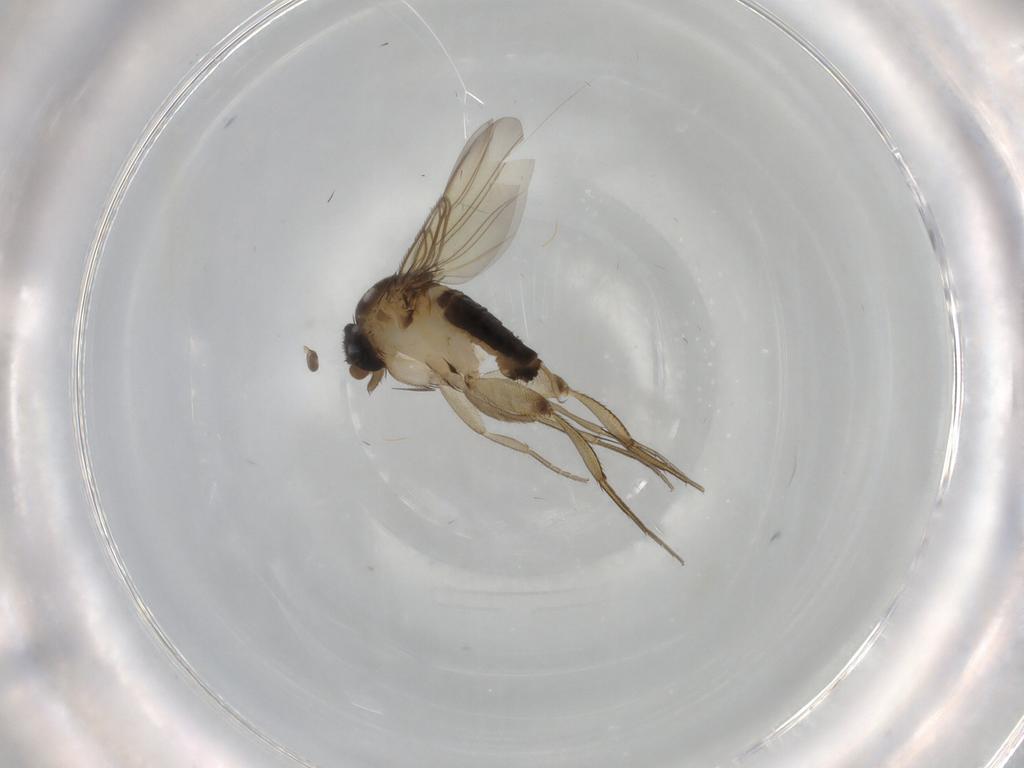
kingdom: Animalia
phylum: Arthropoda
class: Insecta
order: Diptera
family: Phoridae
